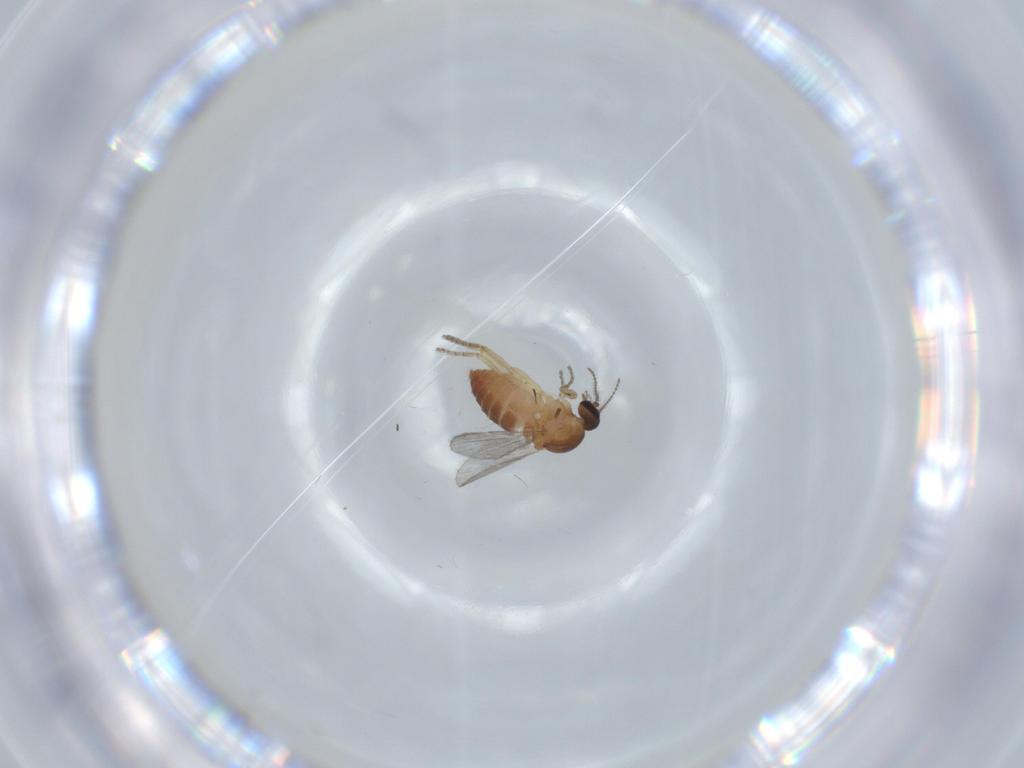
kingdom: Animalia
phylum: Arthropoda
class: Insecta
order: Diptera
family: Ceratopogonidae
